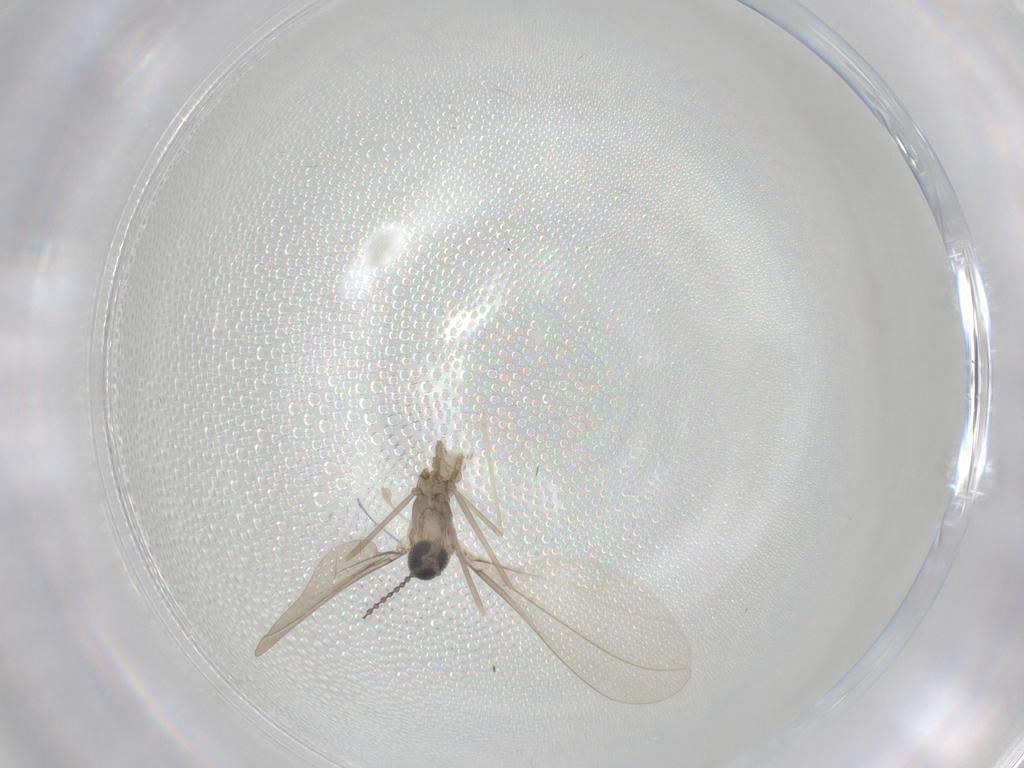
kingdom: Animalia
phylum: Arthropoda
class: Insecta
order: Diptera
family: Cecidomyiidae
